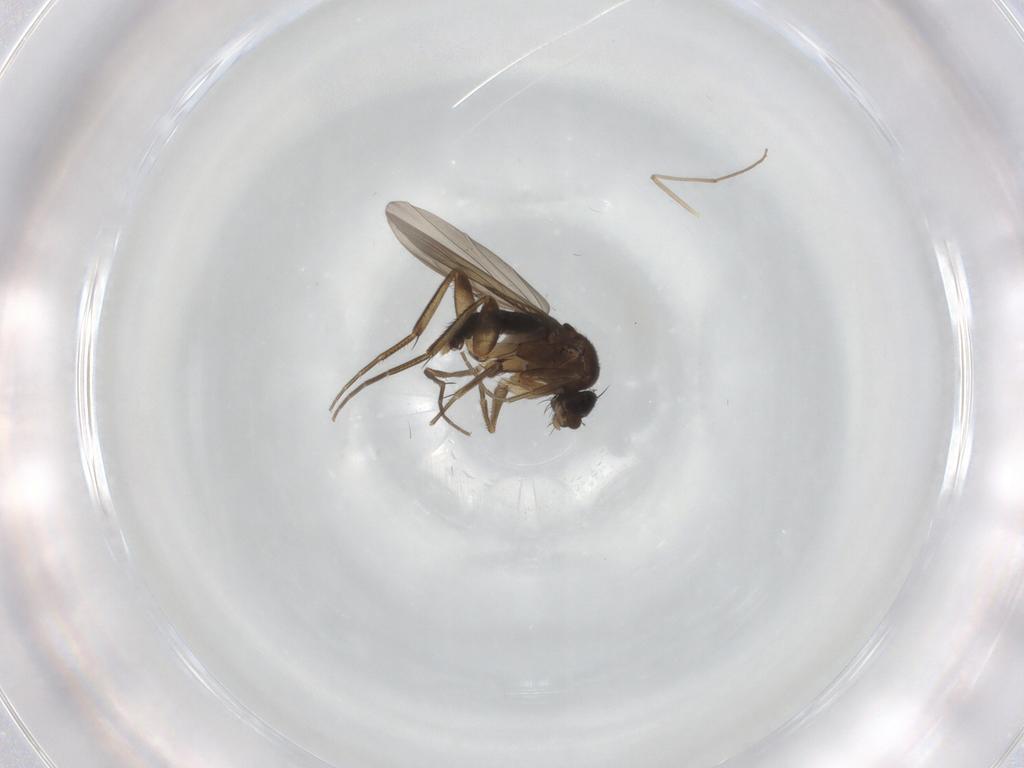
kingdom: Animalia
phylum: Arthropoda
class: Insecta
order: Diptera
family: Phoridae
